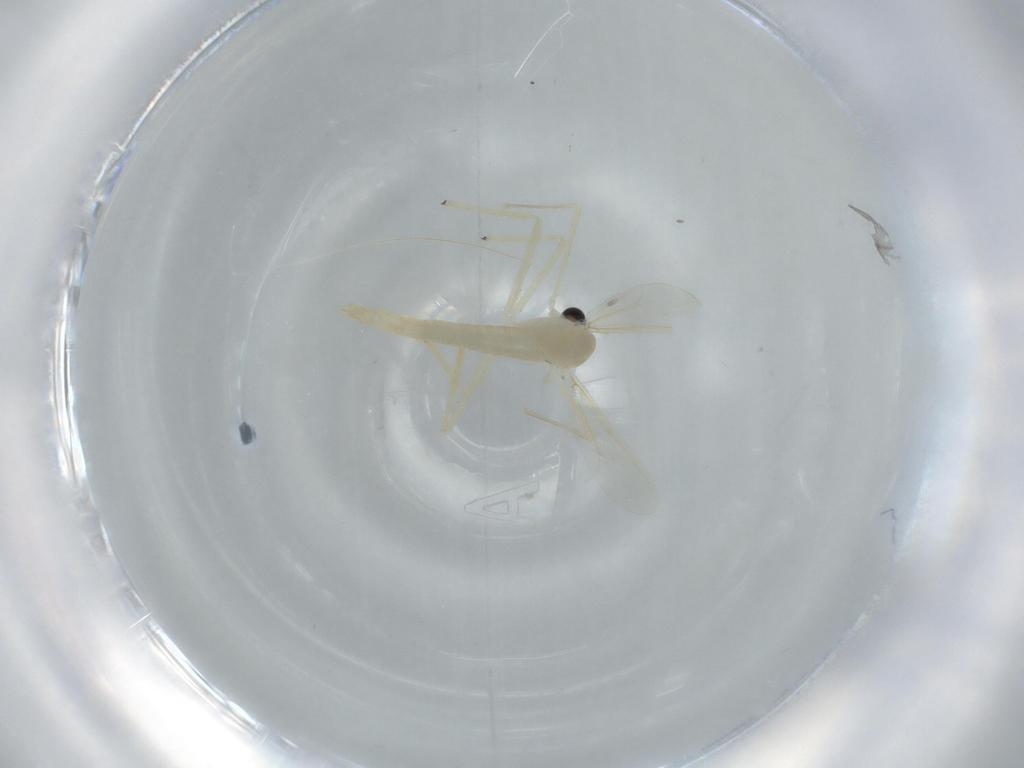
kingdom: Animalia
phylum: Arthropoda
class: Insecta
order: Diptera
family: Chironomidae
